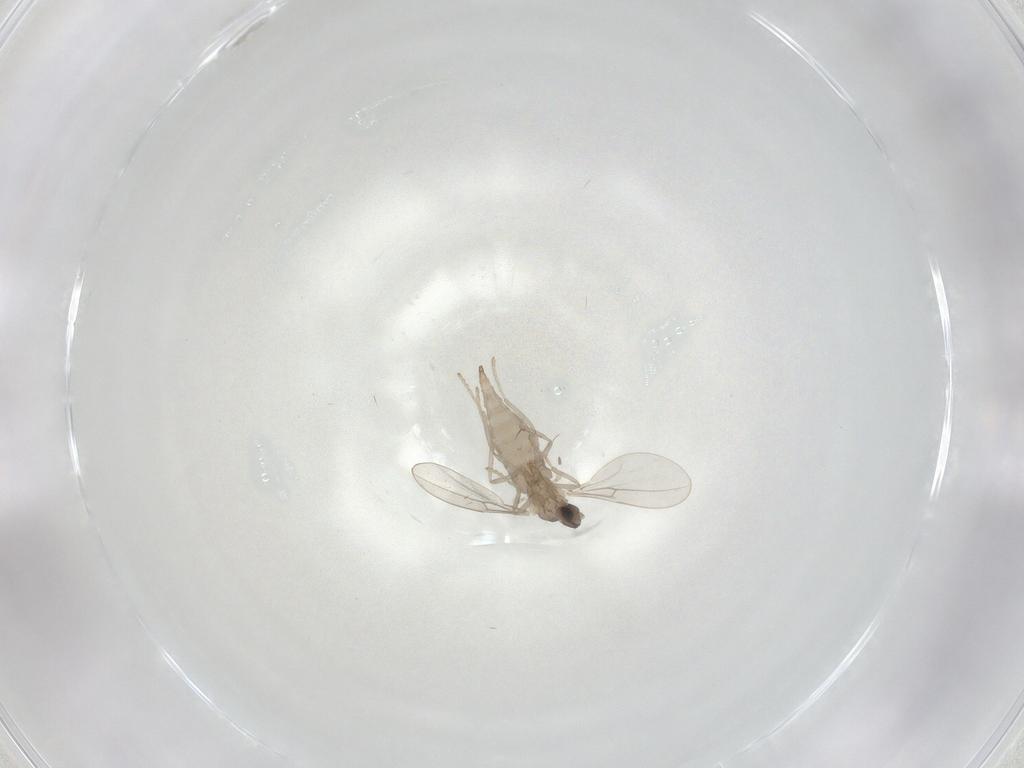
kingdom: Animalia
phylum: Arthropoda
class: Insecta
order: Diptera
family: Cecidomyiidae
